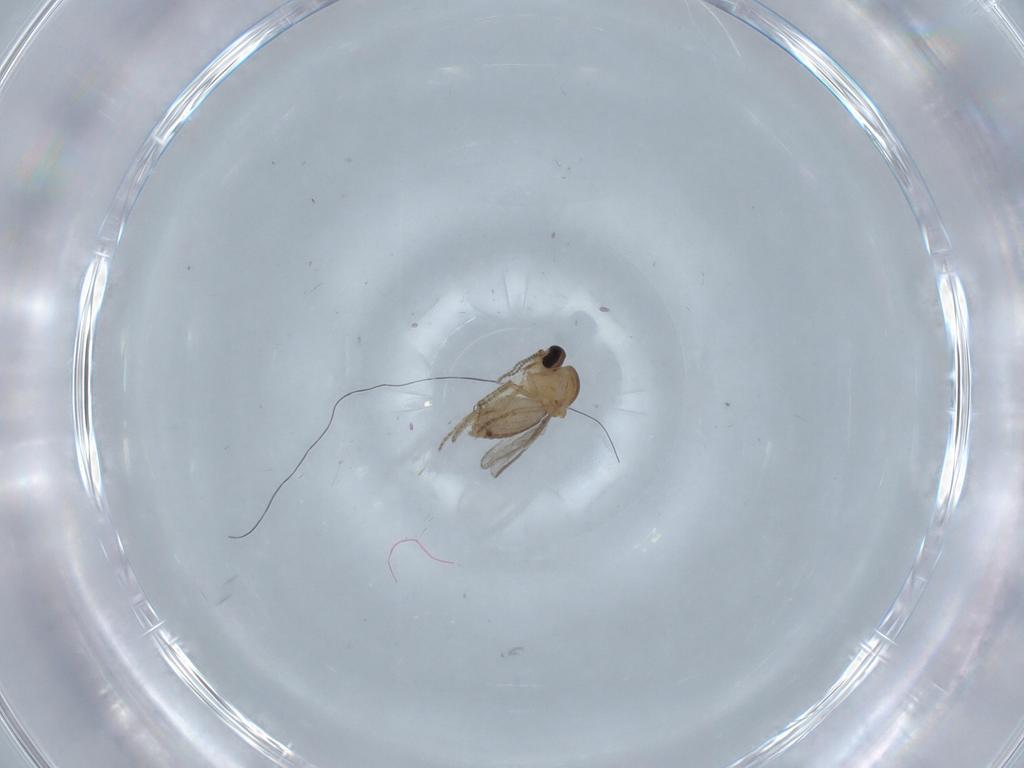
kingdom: Animalia
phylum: Arthropoda
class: Insecta
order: Diptera
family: Ceratopogonidae
